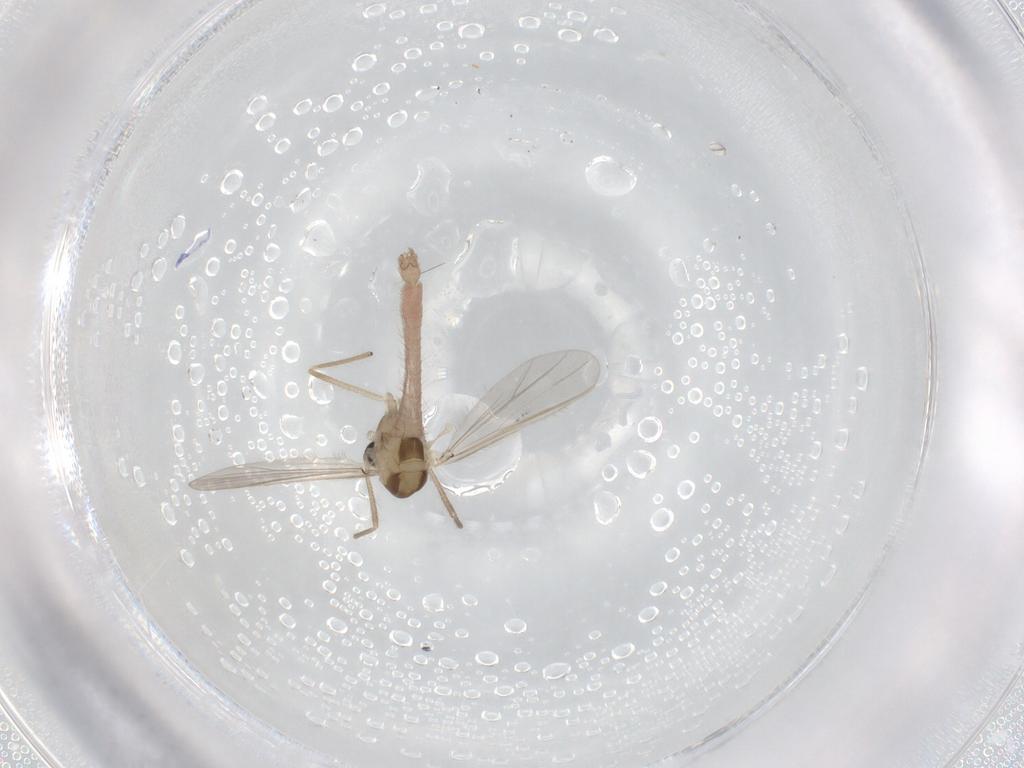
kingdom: Animalia
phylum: Arthropoda
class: Insecta
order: Diptera
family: Chironomidae
